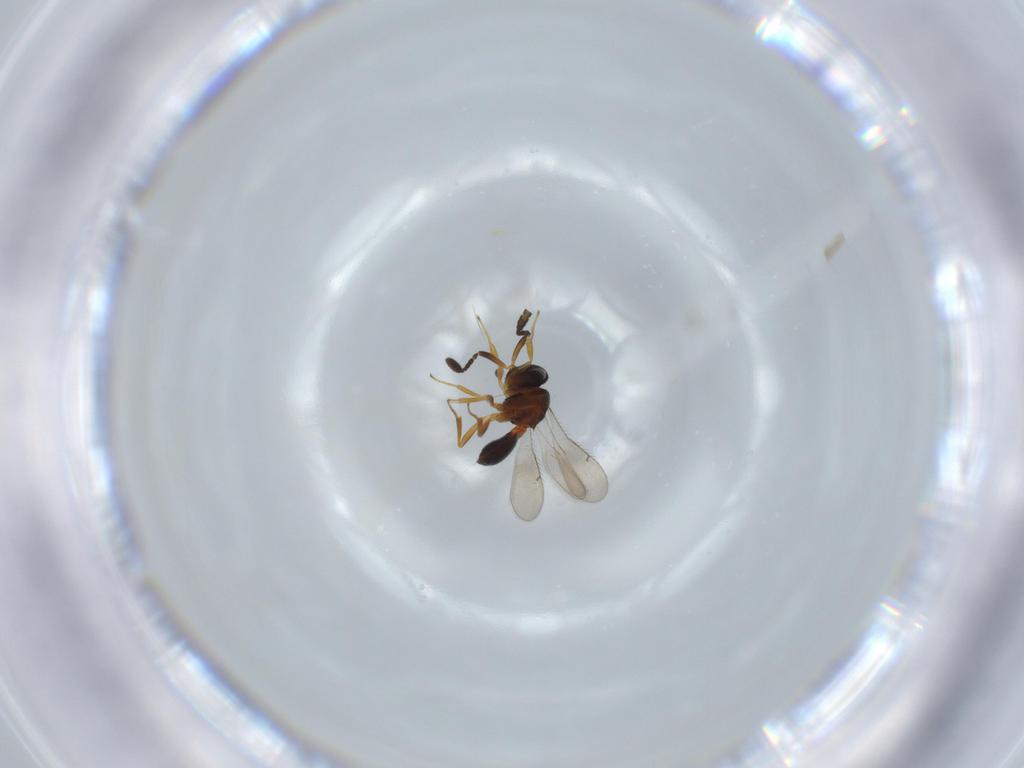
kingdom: Animalia
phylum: Arthropoda
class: Insecta
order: Hymenoptera
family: Scelionidae
